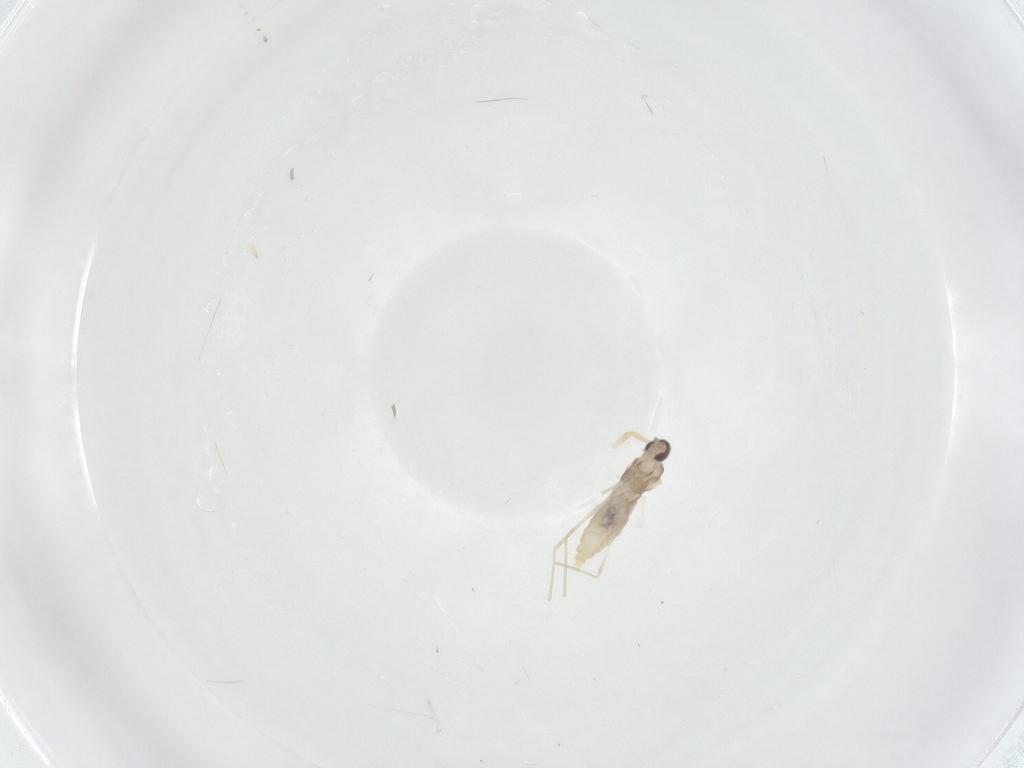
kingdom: Animalia
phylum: Arthropoda
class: Insecta
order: Diptera
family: Cecidomyiidae
